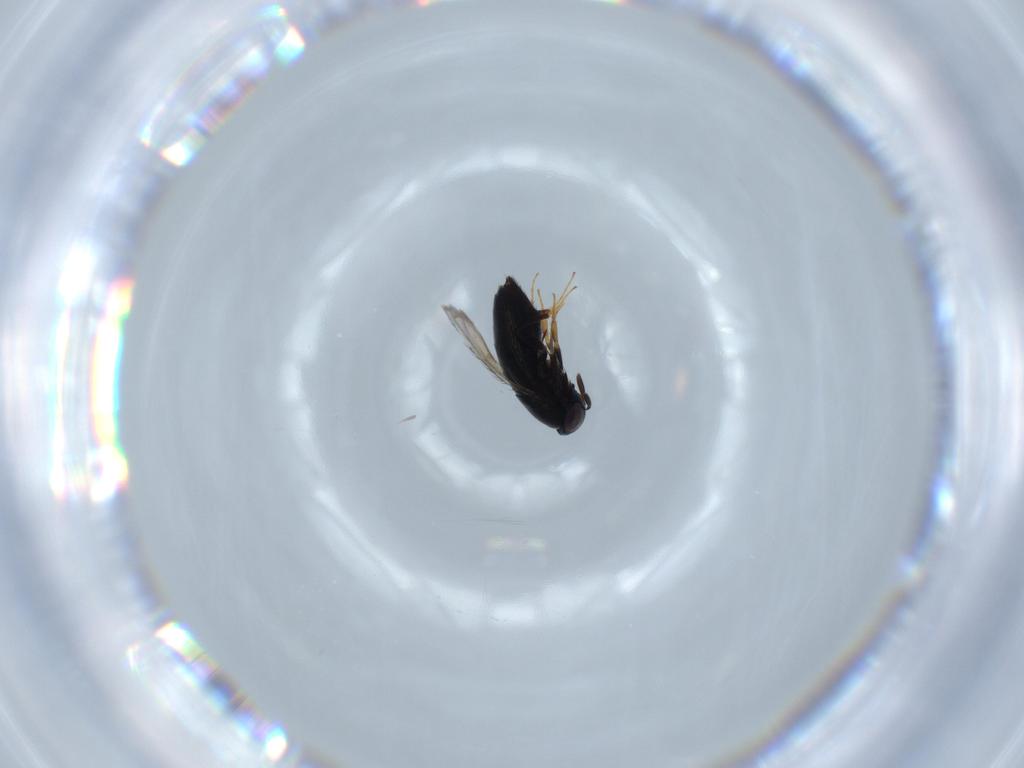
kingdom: Animalia
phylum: Arthropoda
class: Insecta
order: Hymenoptera
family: Signiphoridae
